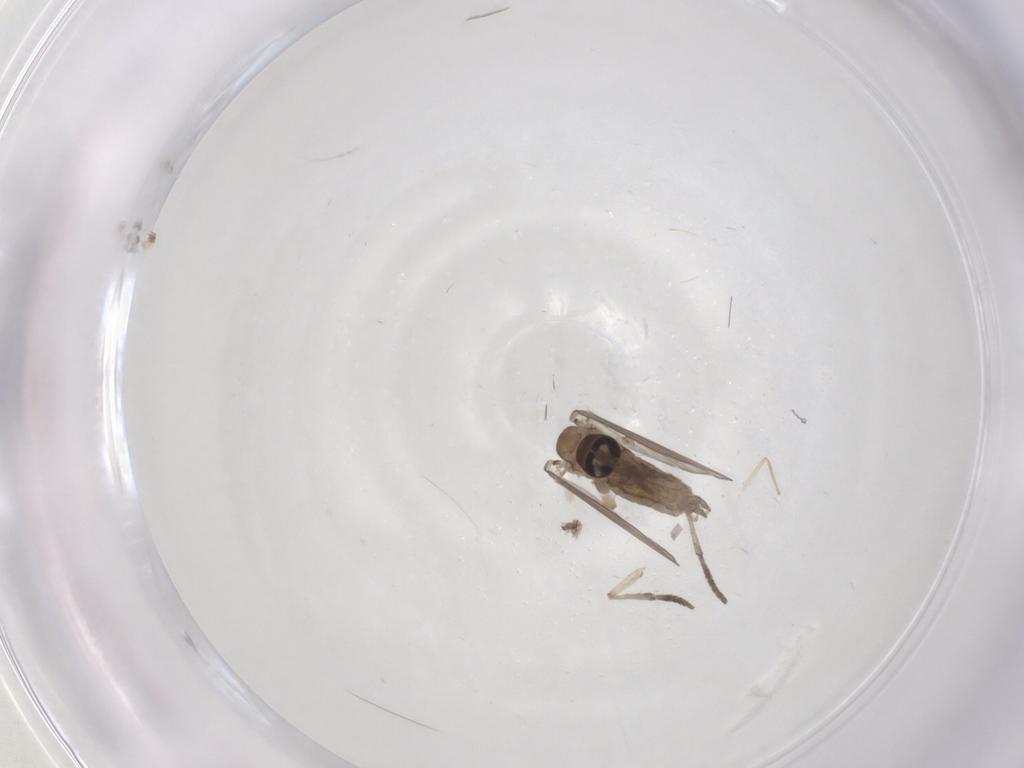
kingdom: Animalia
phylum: Arthropoda
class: Insecta
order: Diptera
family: Psychodidae
